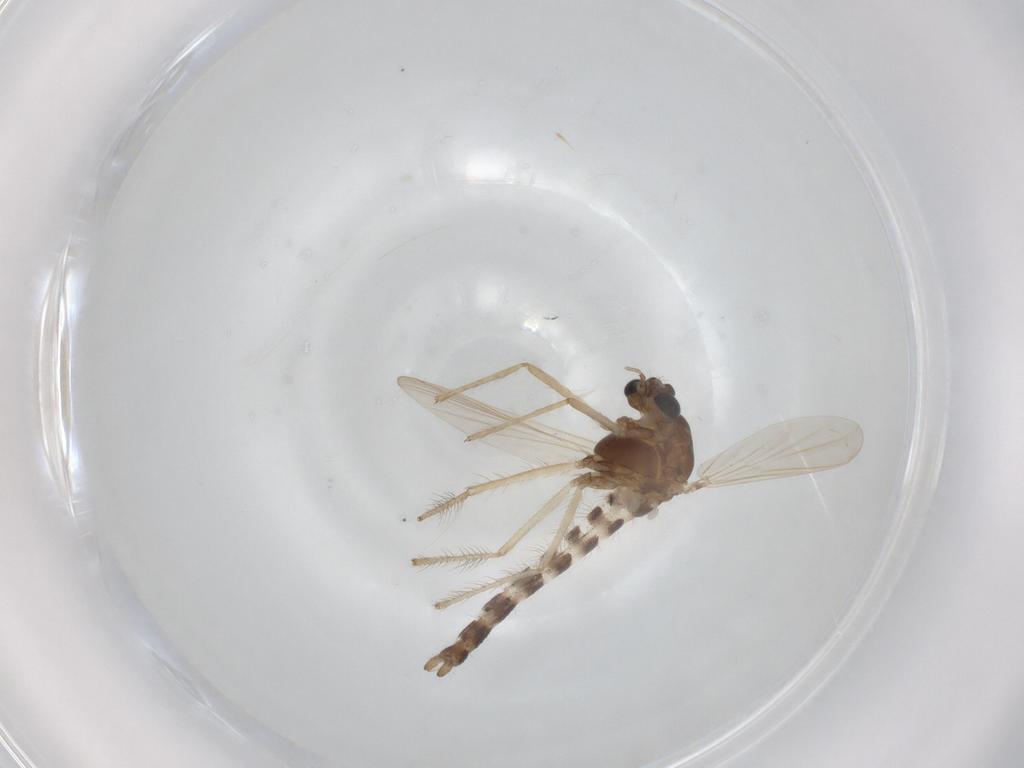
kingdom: Animalia
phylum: Arthropoda
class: Insecta
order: Diptera
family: Chironomidae
